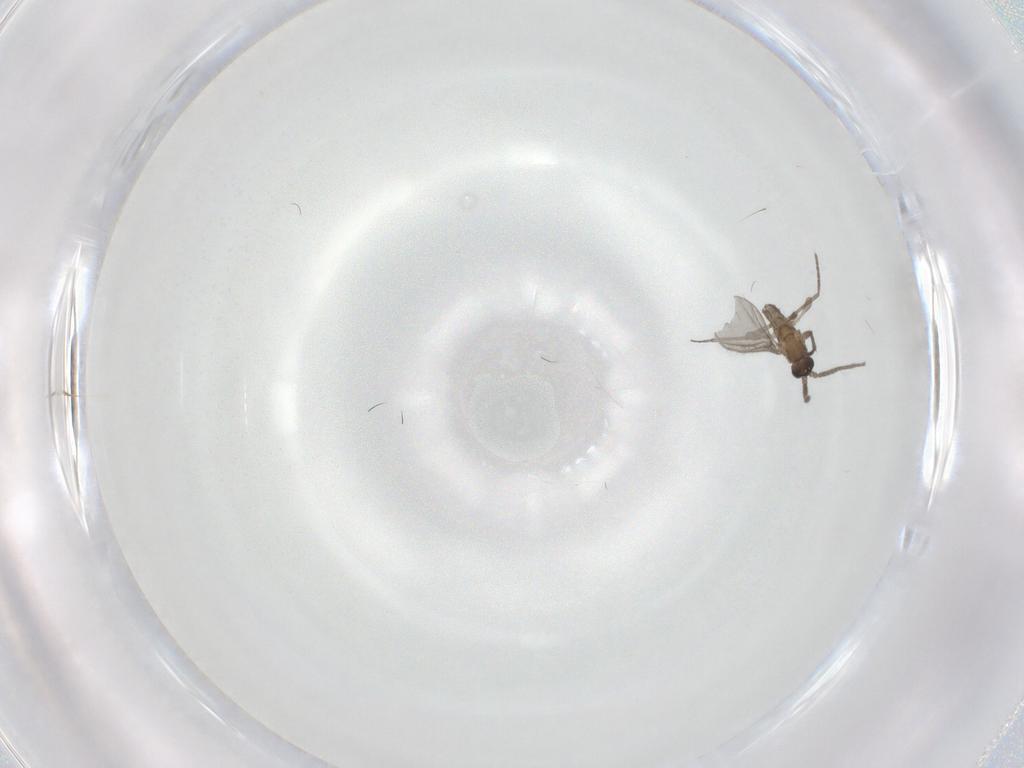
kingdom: Animalia
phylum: Arthropoda
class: Insecta
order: Diptera
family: Sciaridae
